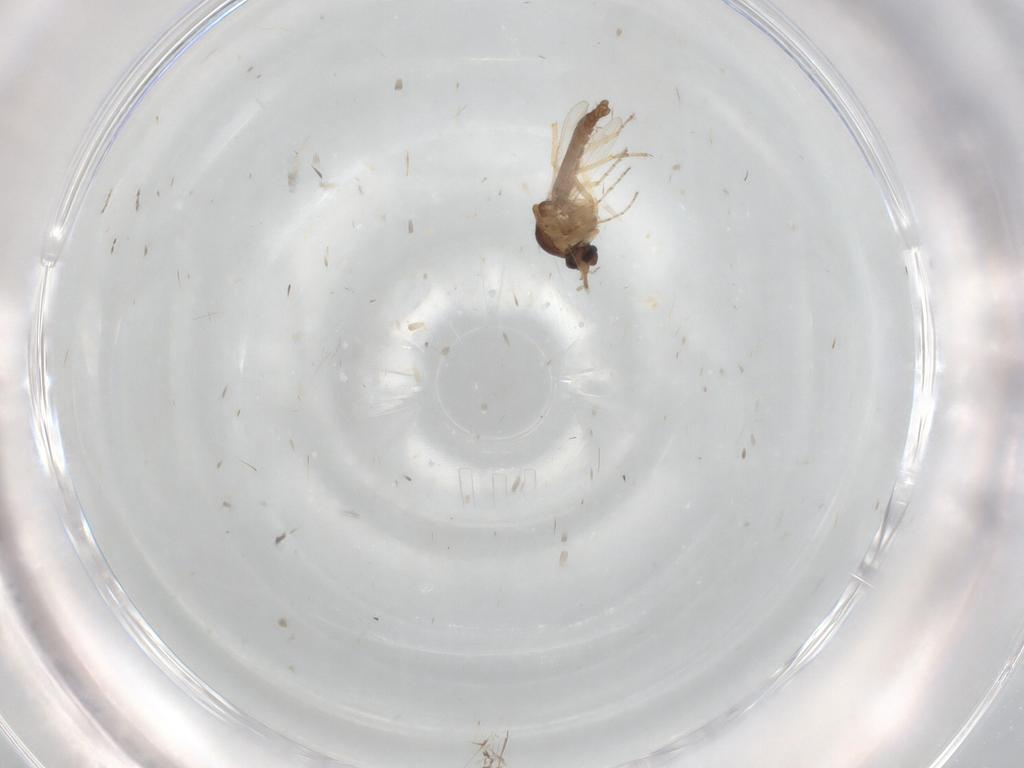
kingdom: Animalia
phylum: Arthropoda
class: Insecta
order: Diptera
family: Ceratopogonidae
